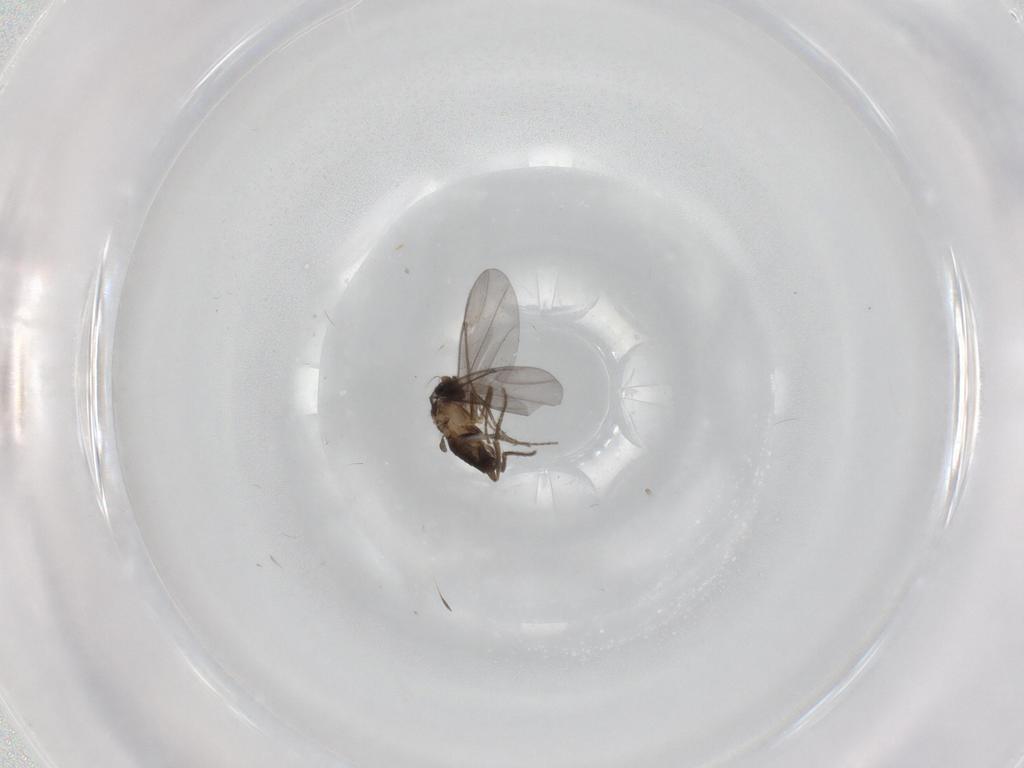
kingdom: Animalia
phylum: Arthropoda
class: Insecta
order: Diptera
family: Phoridae
